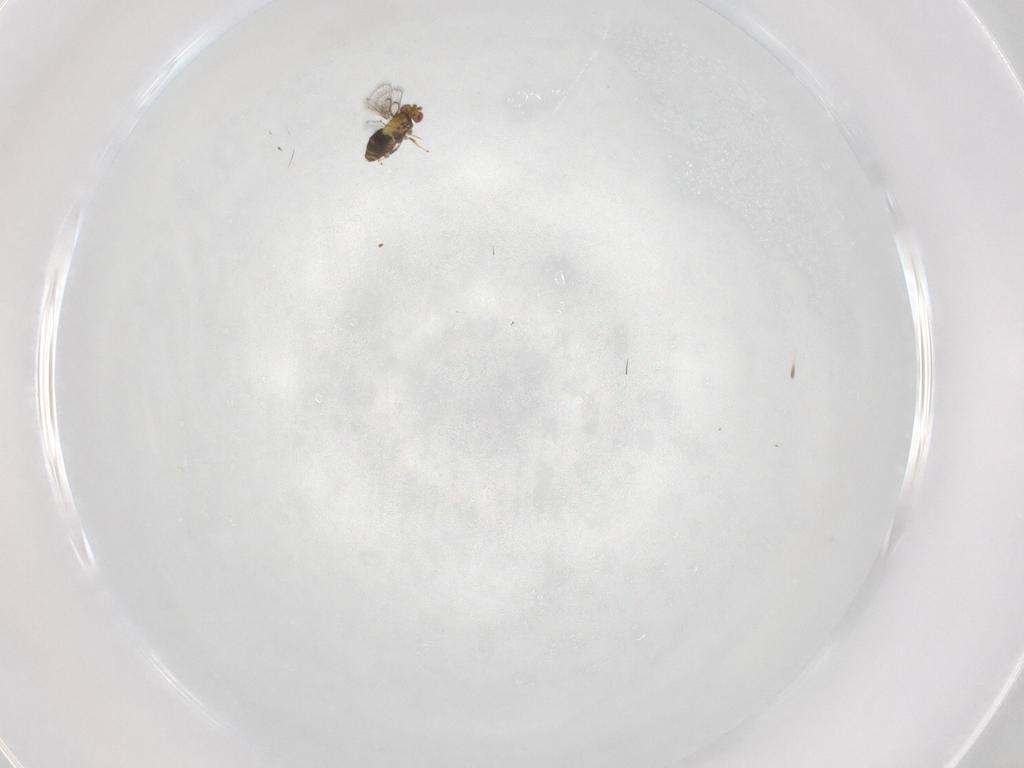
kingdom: Animalia
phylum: Arthropoda
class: Insecta
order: Hymenoptera
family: Trichogrammatidae
